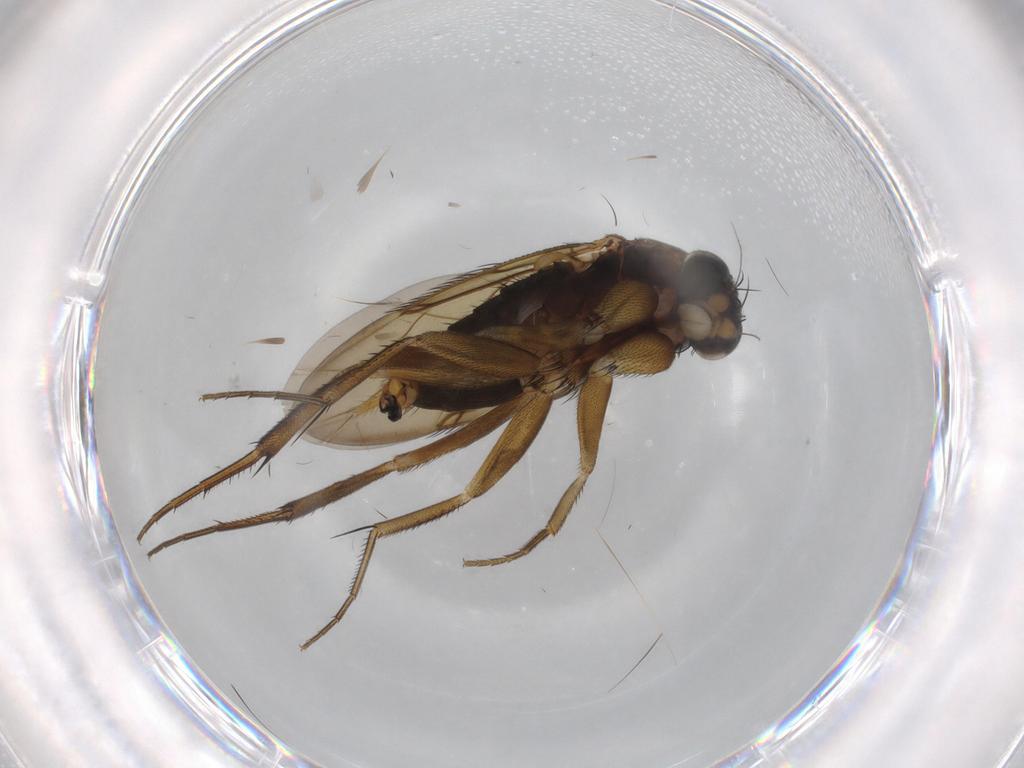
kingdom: Animalia
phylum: Arthropoda
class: Insecta
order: Diptera
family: Phoridae
